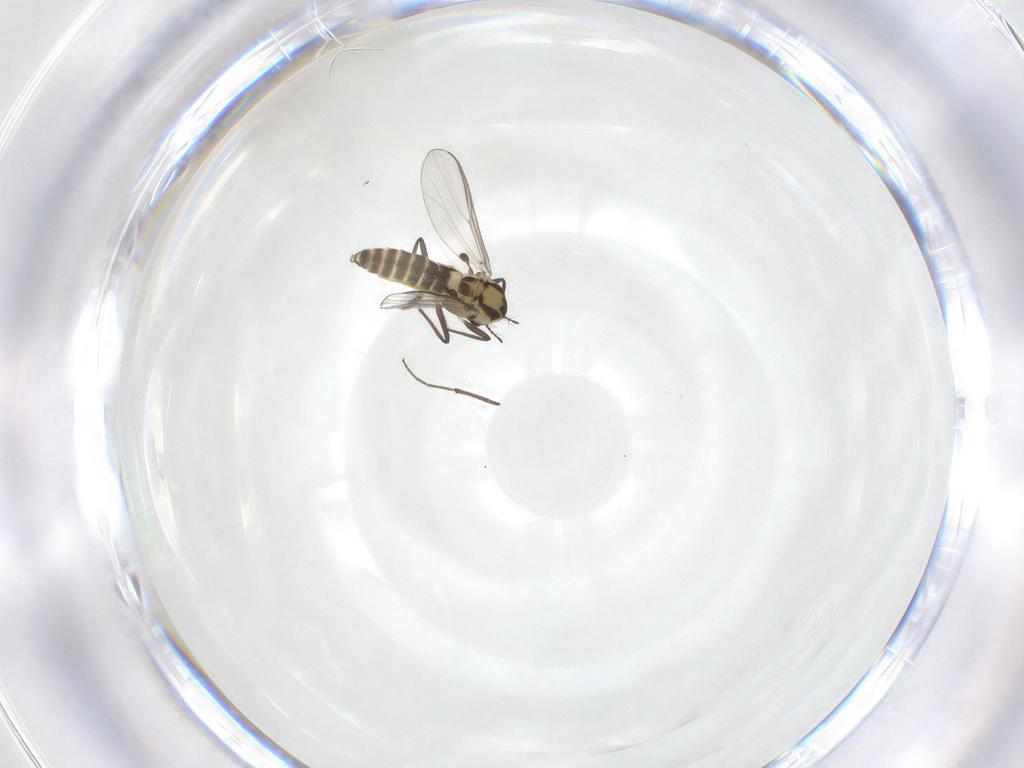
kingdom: Animalia
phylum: Arthropoda
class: Insecta
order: Diptera
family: Chironomidae
